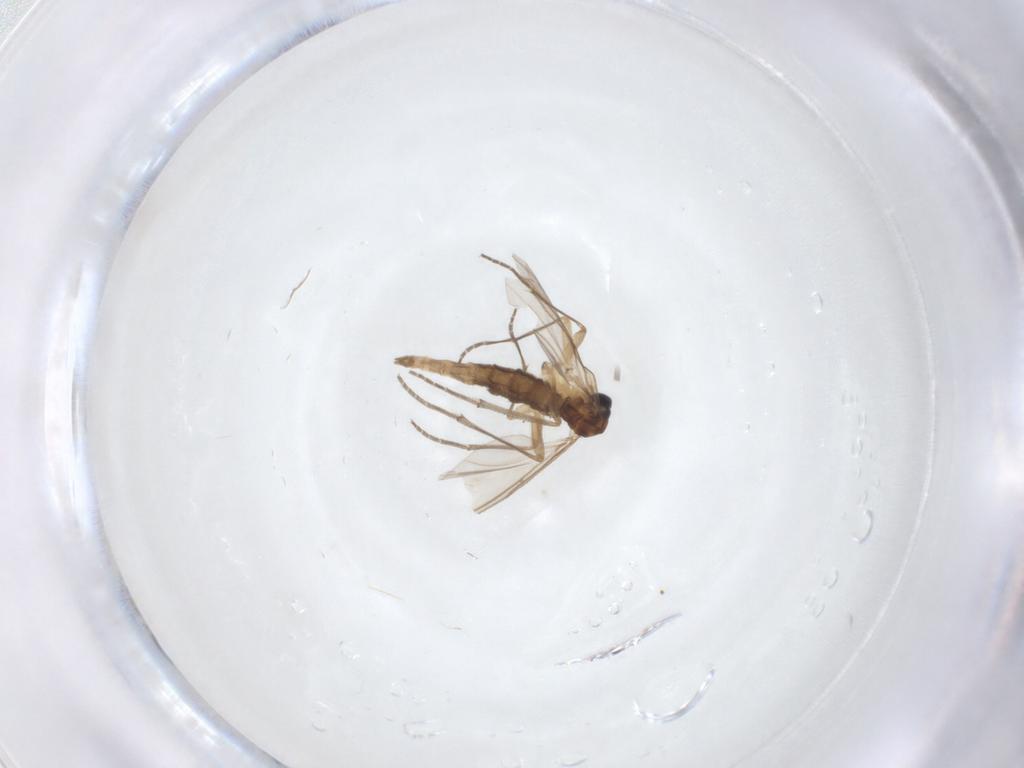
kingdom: Animalia
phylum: Arthropoda
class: Insecta
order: Diptera
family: Sciaridae
